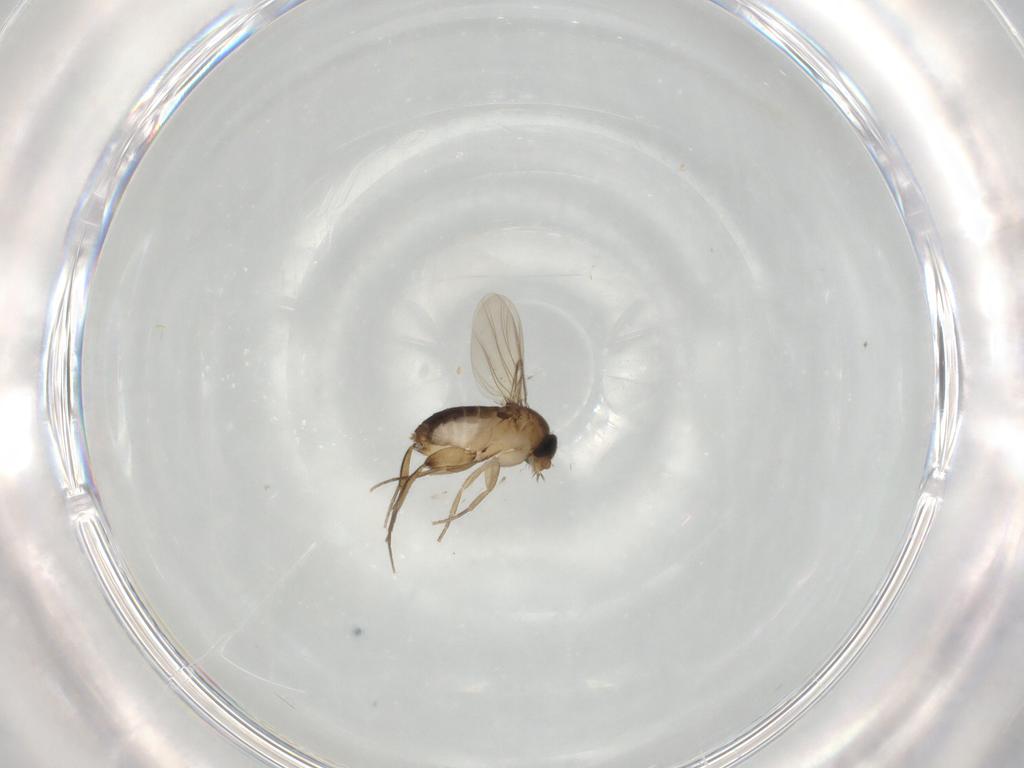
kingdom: Animalia
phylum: Arthropoda
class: Insecta
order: Diptera
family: Phoridae
